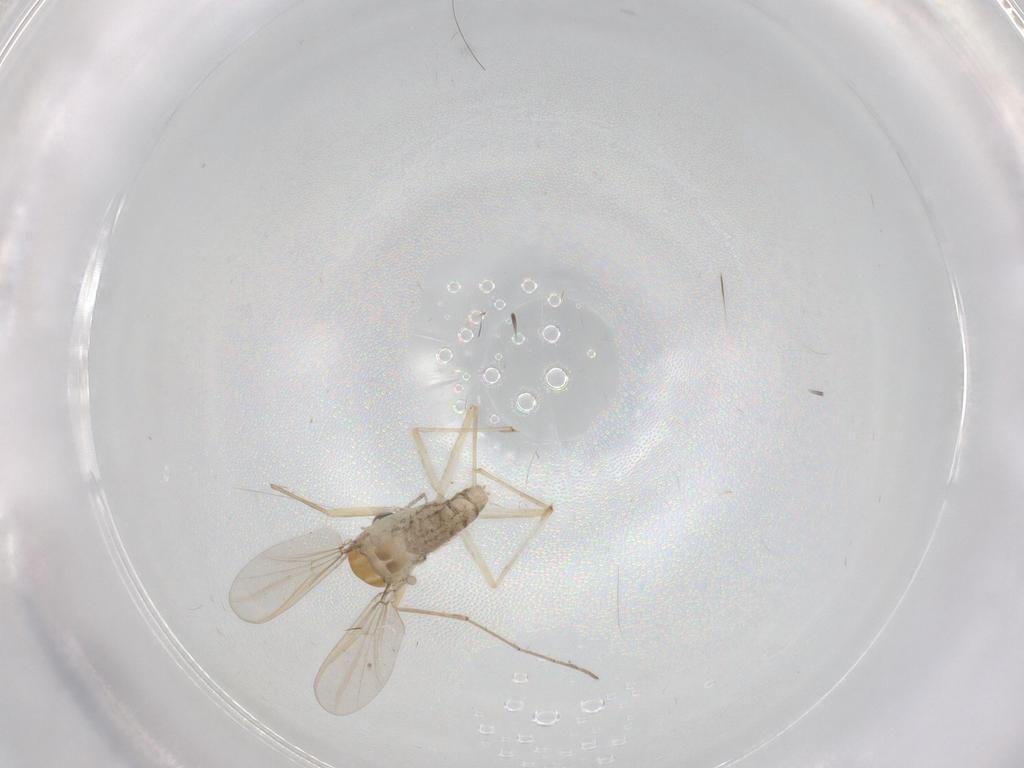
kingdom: Animalia
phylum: Arthropoda
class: Insecta
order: Diptera
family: Chironomidae
